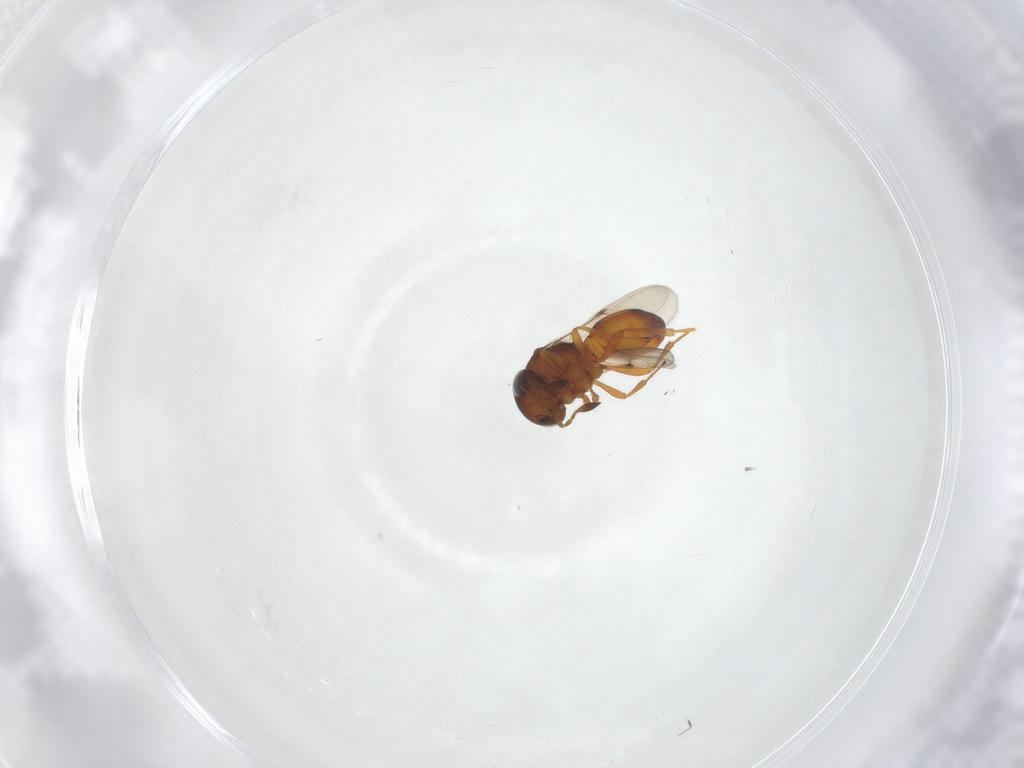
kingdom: Animalia
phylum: Arthropoda
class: Arachnida
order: Araneae
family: Pholcidae
